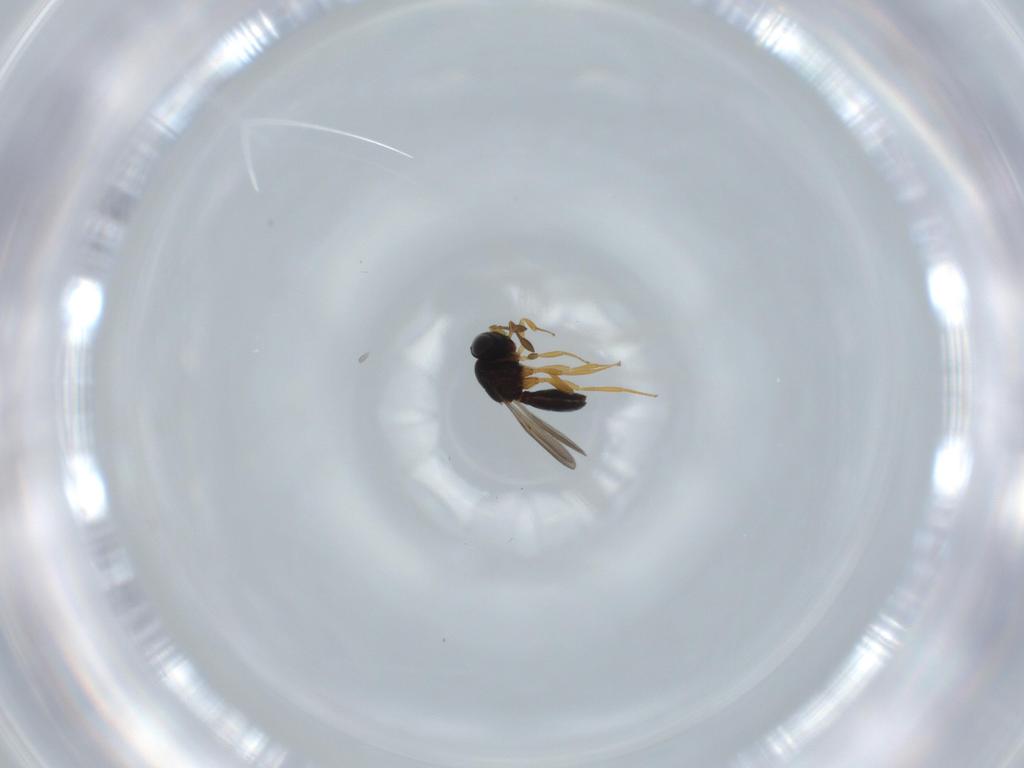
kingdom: Animalia
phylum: Arthropoda
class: Insecta
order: Hymenoptera
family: Scelionidae
